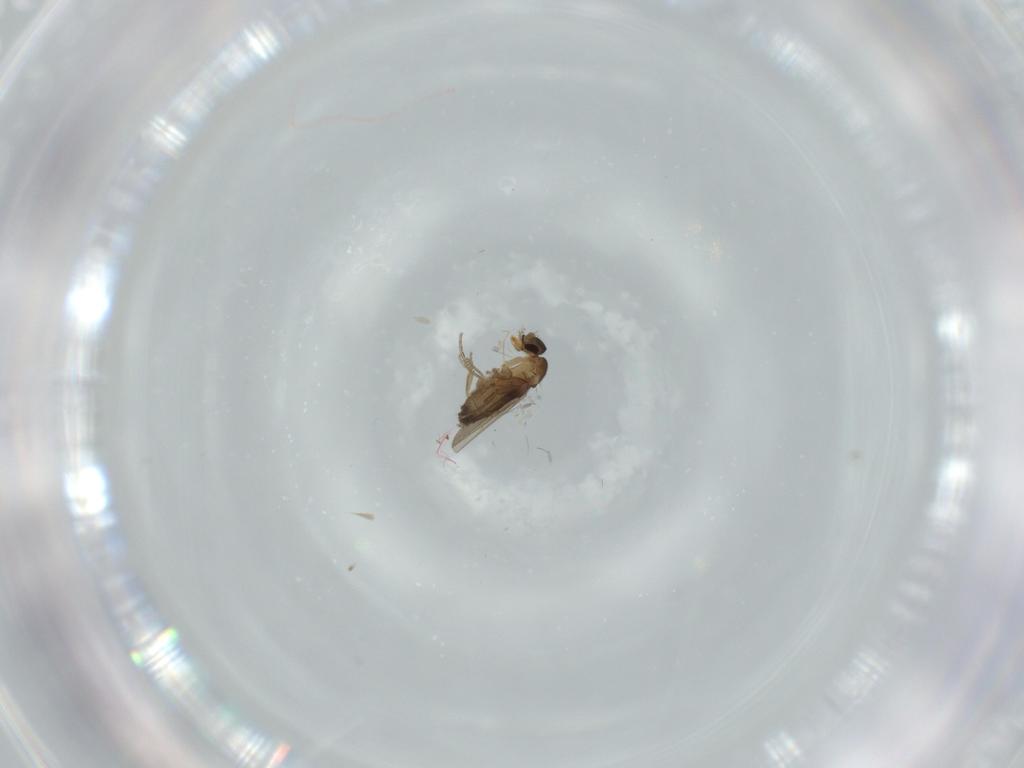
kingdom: Animalia
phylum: Arthropoda
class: Insecta
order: Diptera
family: Phoridae
